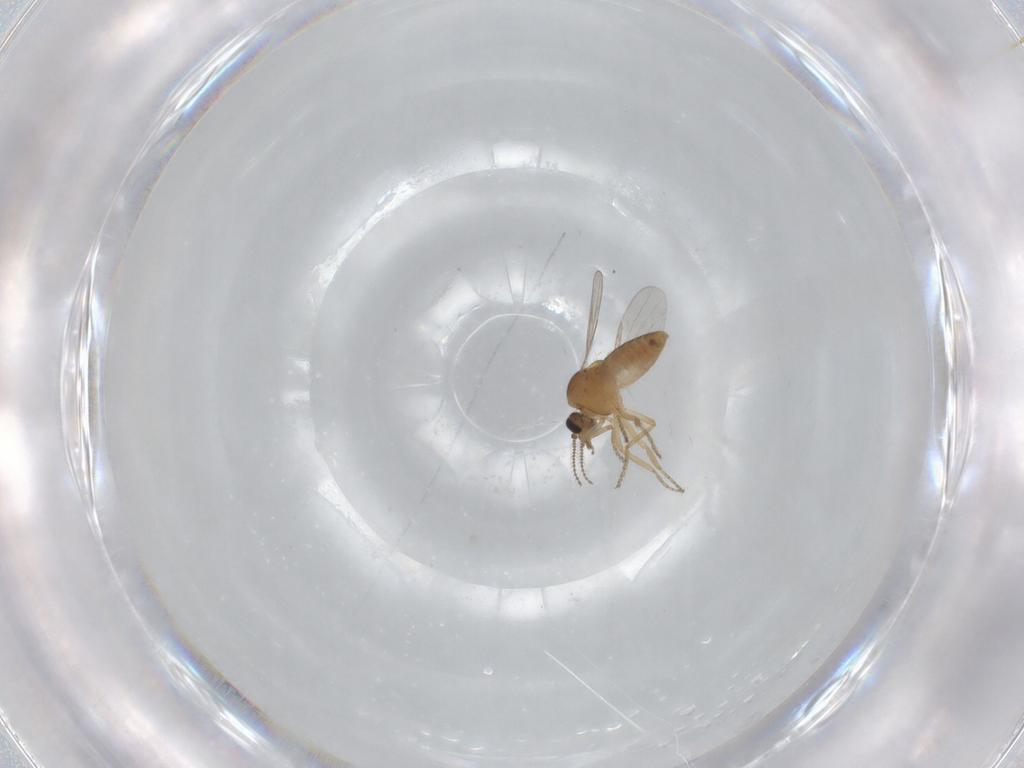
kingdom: Animalia
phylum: Arthropoda
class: Insecta
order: Diptera
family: Ceratopogonidae
